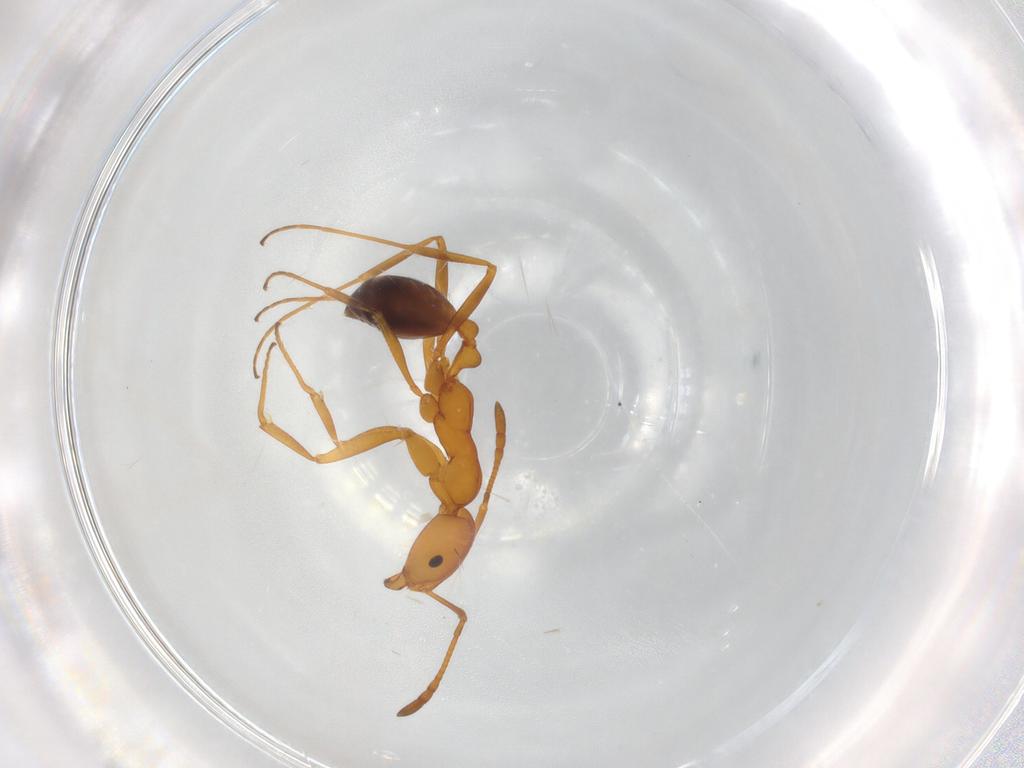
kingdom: Animalia
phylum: Arthropoda
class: Insecta
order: Hymenoptera
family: Formicidae
